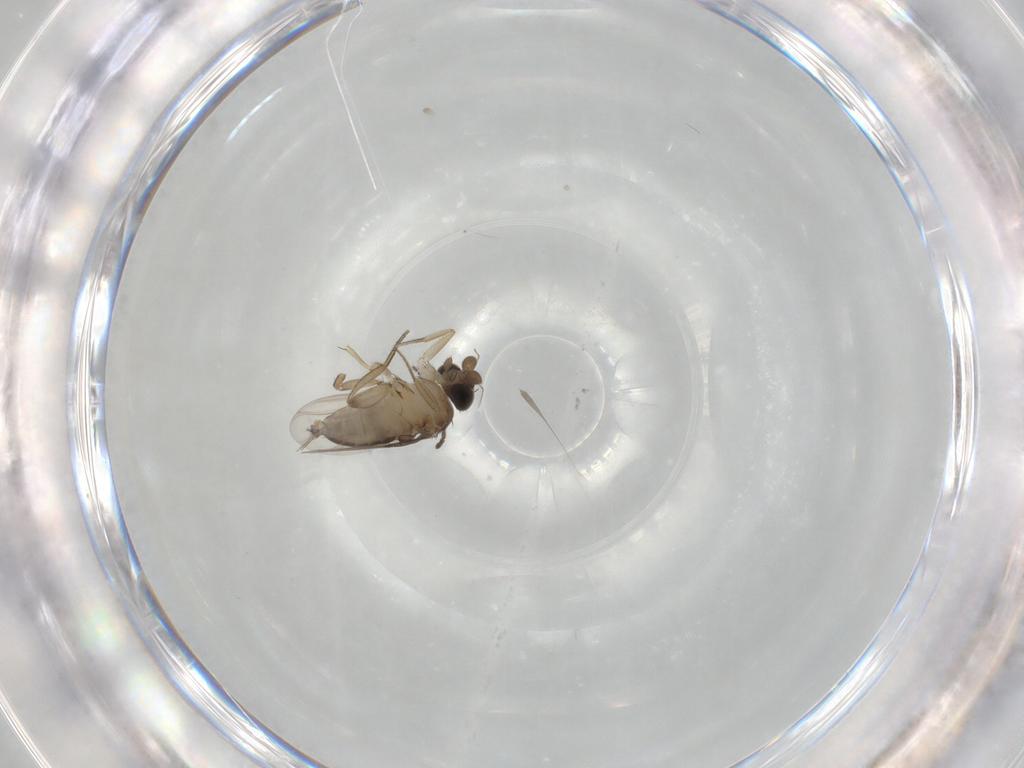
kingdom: Animalia
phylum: Arthropoda
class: Insecta
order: Diptera
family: Phoridae
